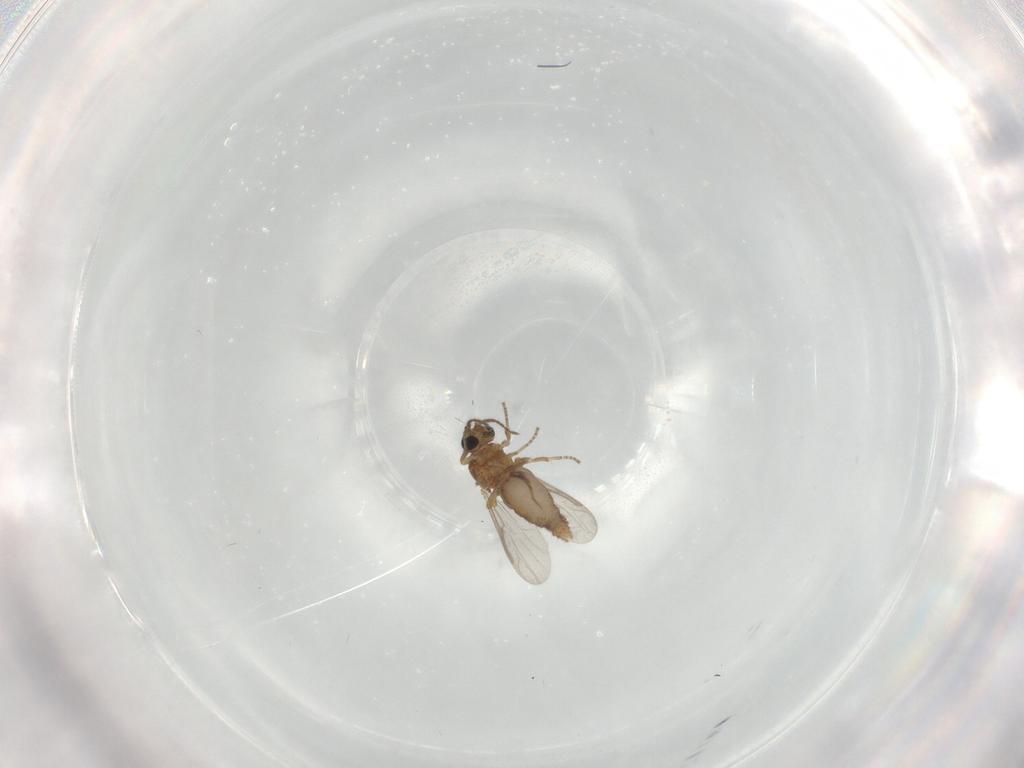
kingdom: Animalia
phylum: Arthropoda
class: Insecta
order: Diptera
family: Ceratopogonidae
